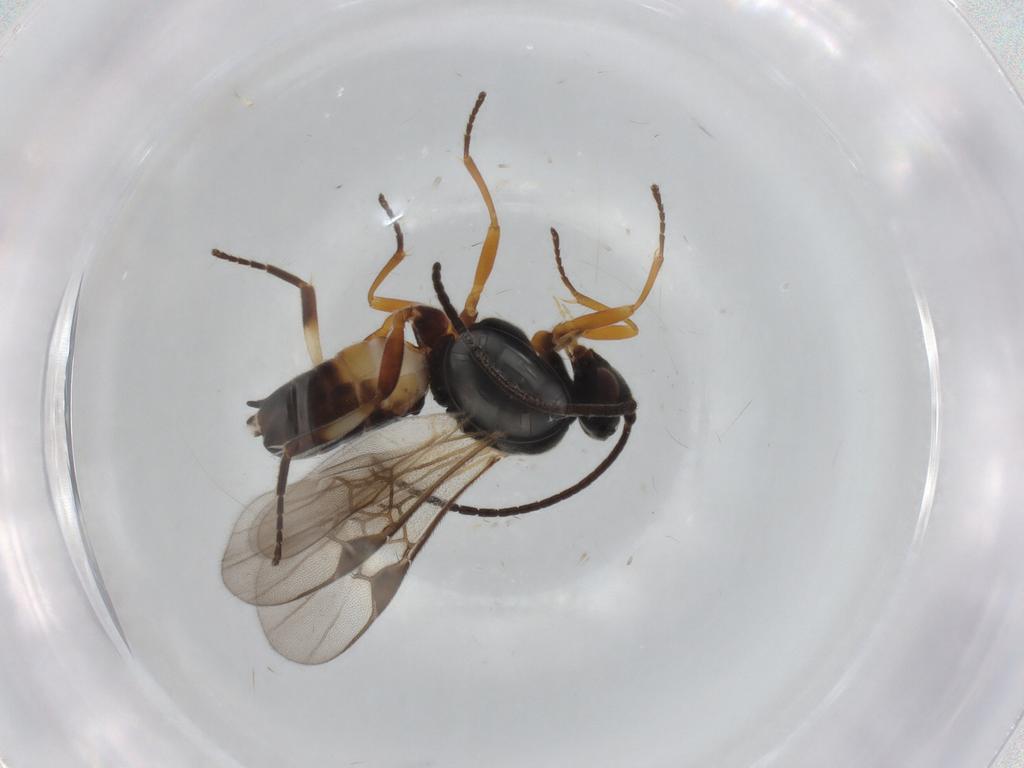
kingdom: Animalia
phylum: Arthropoda
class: Insecta
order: Hymenoptera
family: Braconidae
